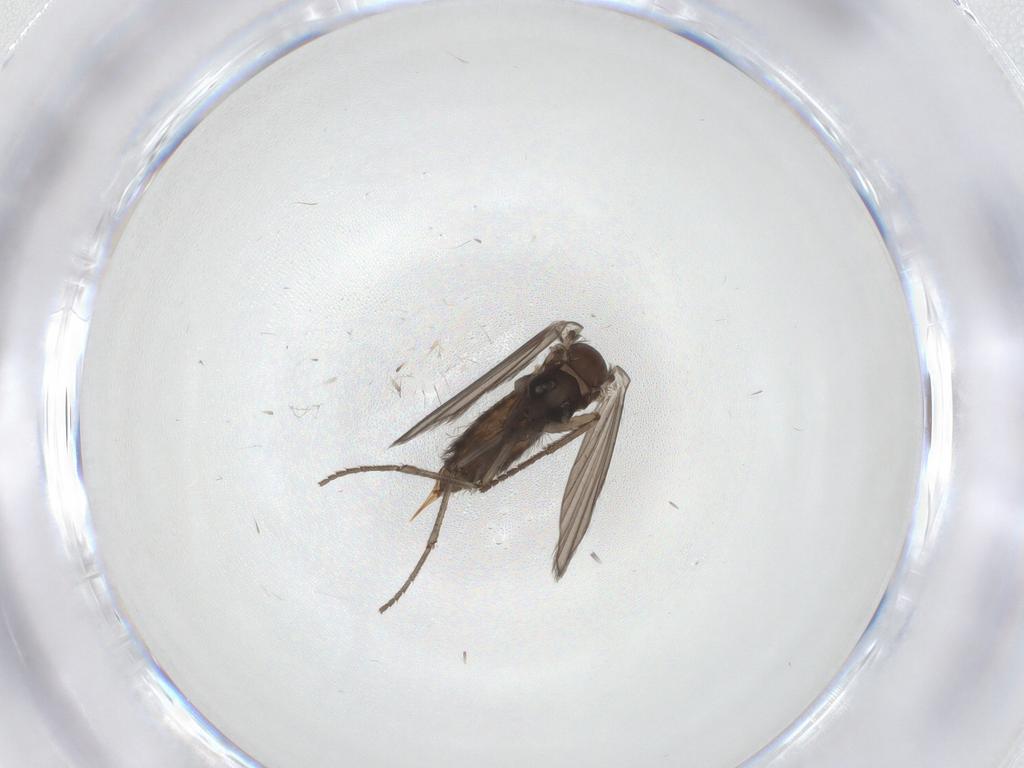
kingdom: Animalia
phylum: Arthropoda
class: Insecta
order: Diptera
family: Psychodidae
